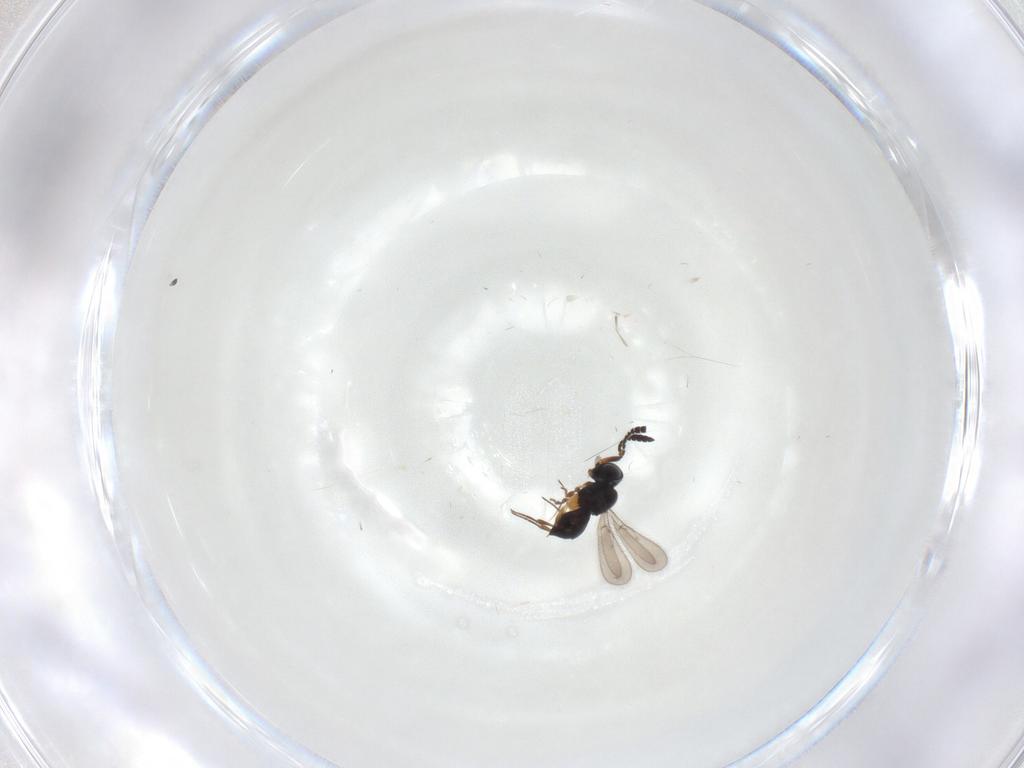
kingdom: Animalia
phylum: Arthropoda
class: Insecta
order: Hymenoptera
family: Scelionidae
